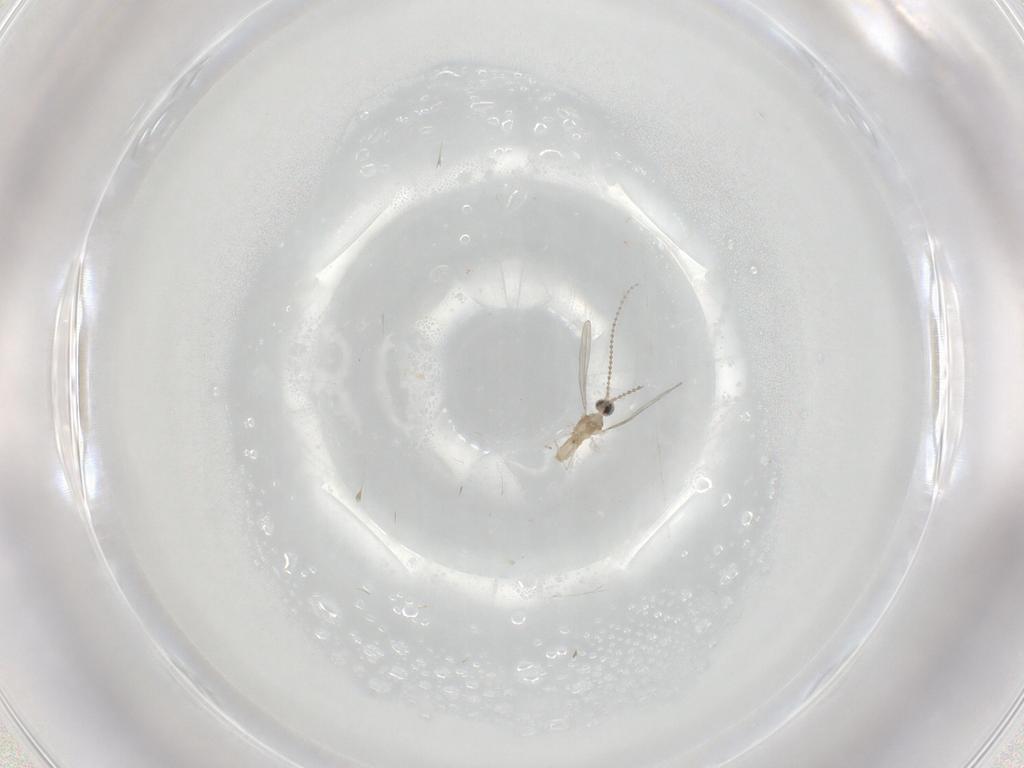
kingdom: Animalia
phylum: Arthropoda
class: Insecta
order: Diptera
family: Cecidomyiidae
